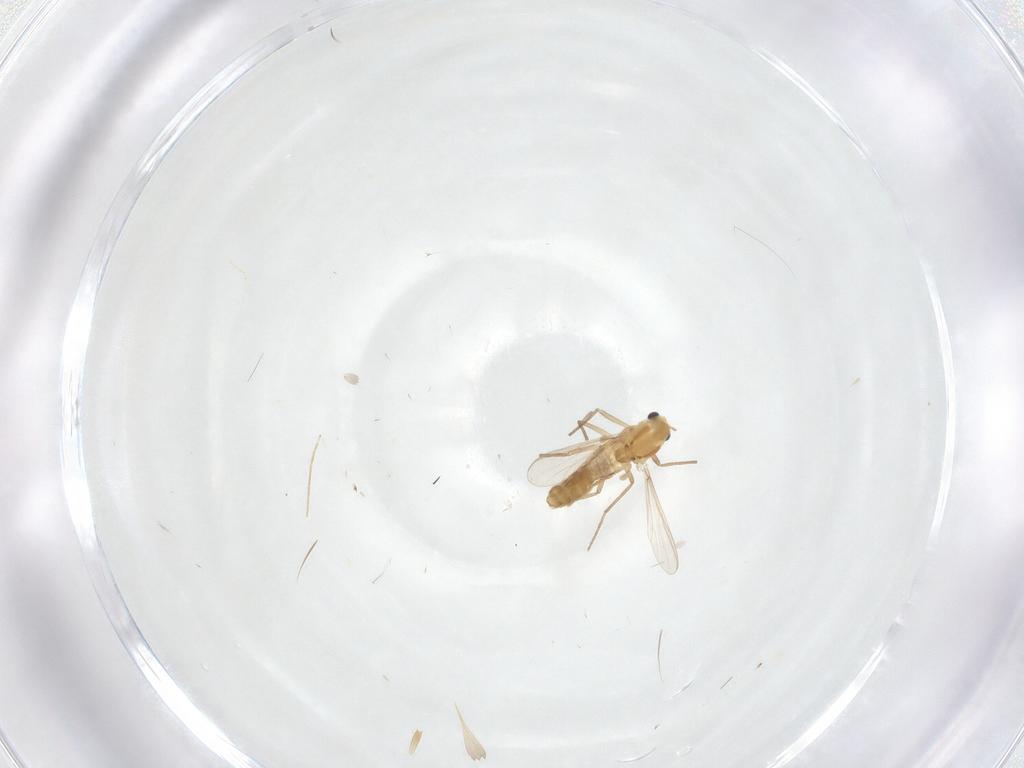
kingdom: Animalia
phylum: Arthropoda
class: Insecta
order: Diptera
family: Chironomidae
